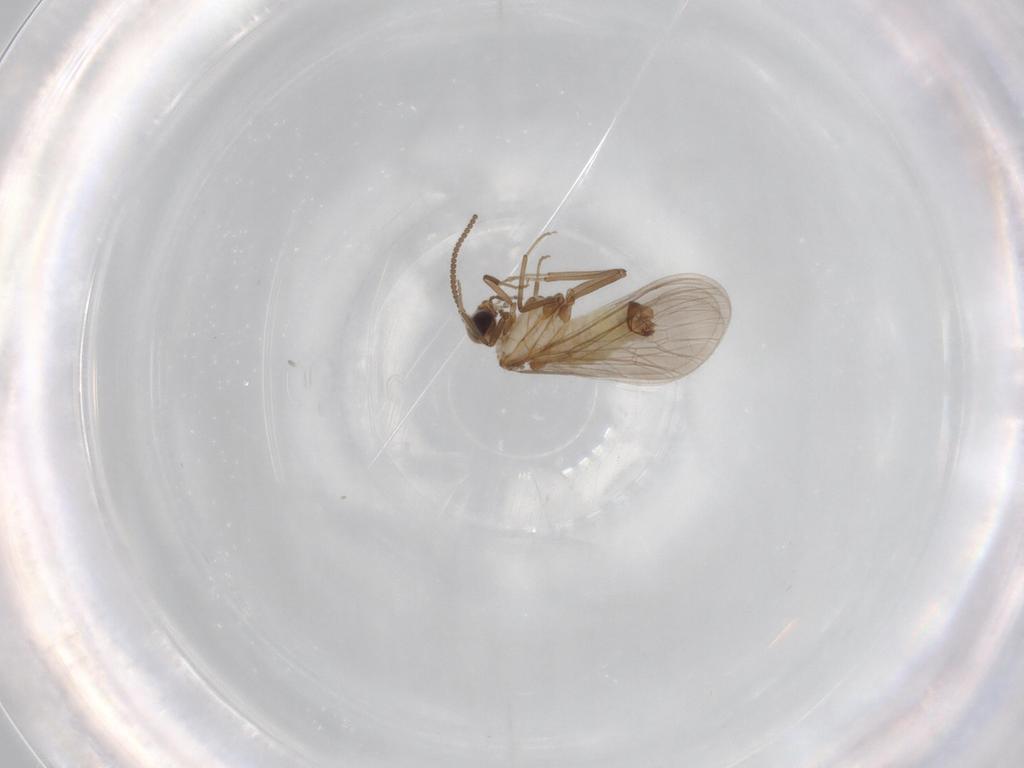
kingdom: Animalia
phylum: Arthropoda
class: Insecta
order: Neuroptera
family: Coniopterygidae
